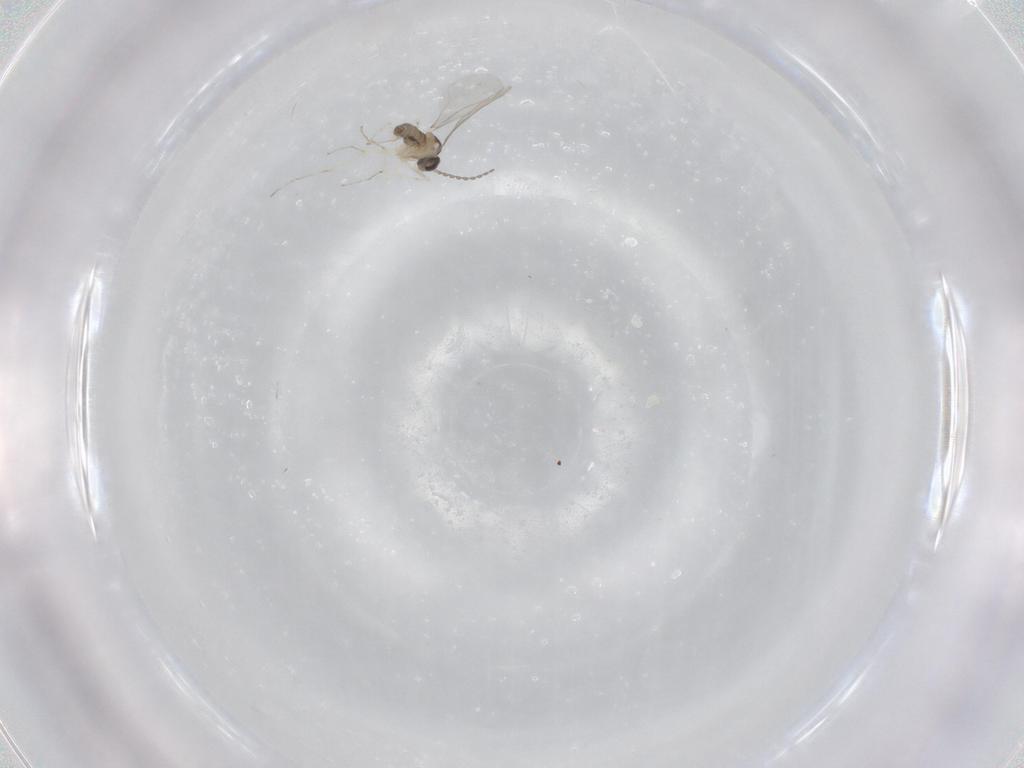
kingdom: Animalia
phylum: Arthropoda
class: Insecta
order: Diptera
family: Cecidomyiidae
